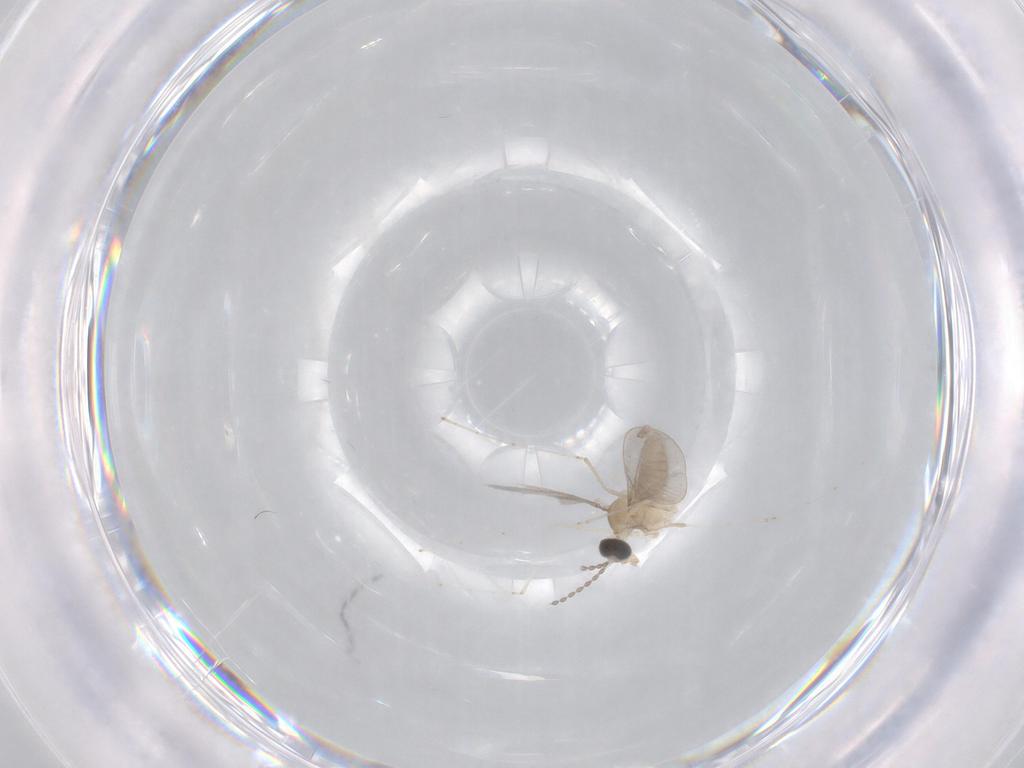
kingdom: Animalia
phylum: Arthropoda
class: Insecta
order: Diptera
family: Cecidomyiidae
